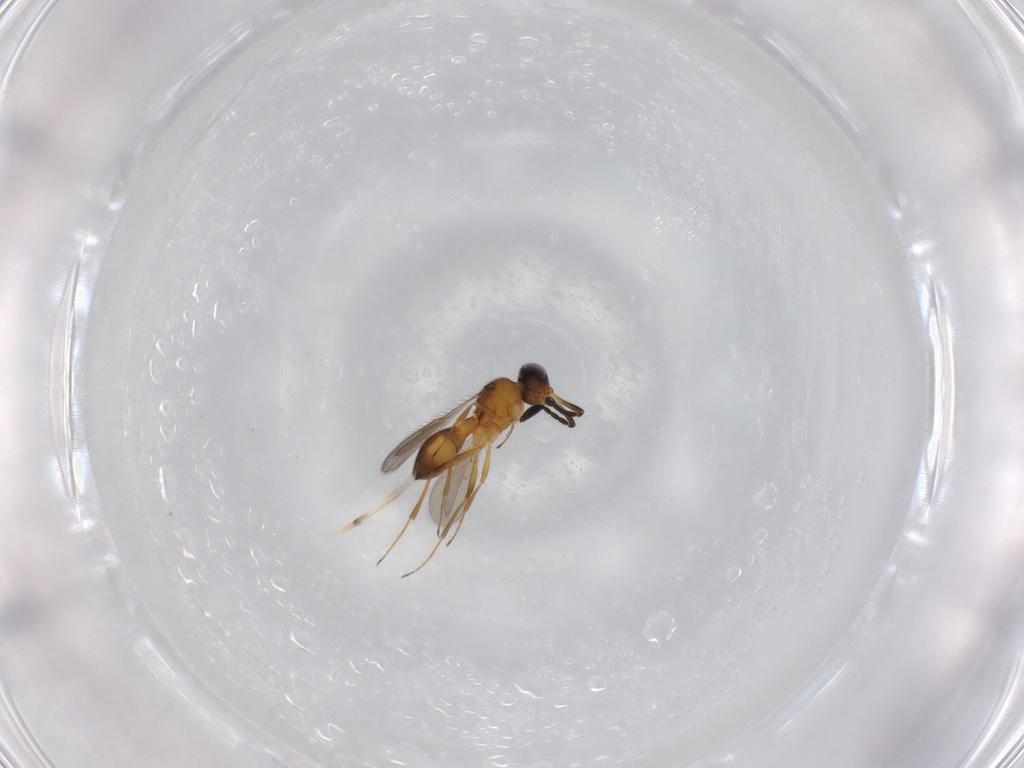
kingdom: Animalia
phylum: Arthropoda
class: Insecta
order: Hymenoptera
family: Scelionidae
